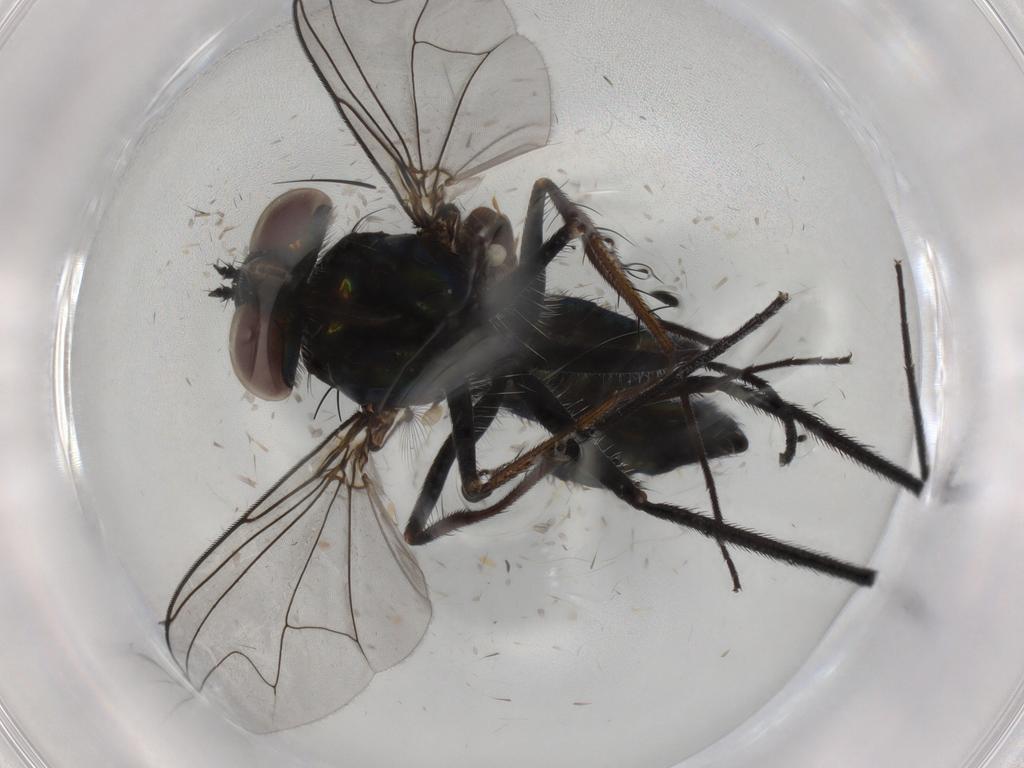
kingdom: Animalia
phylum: Arthropoda
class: Insecta
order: Diptera
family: Dolichopodidae
